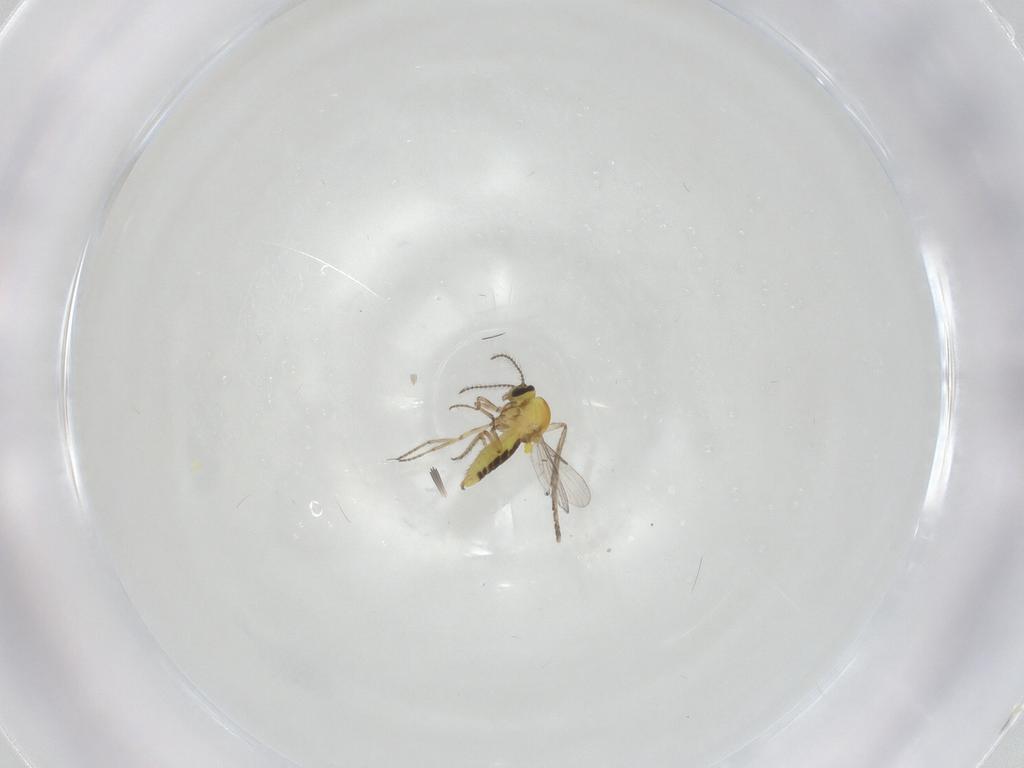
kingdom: Animalia
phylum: Arthropoda
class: Insecta
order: Diptera
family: Ceratopogonidae
